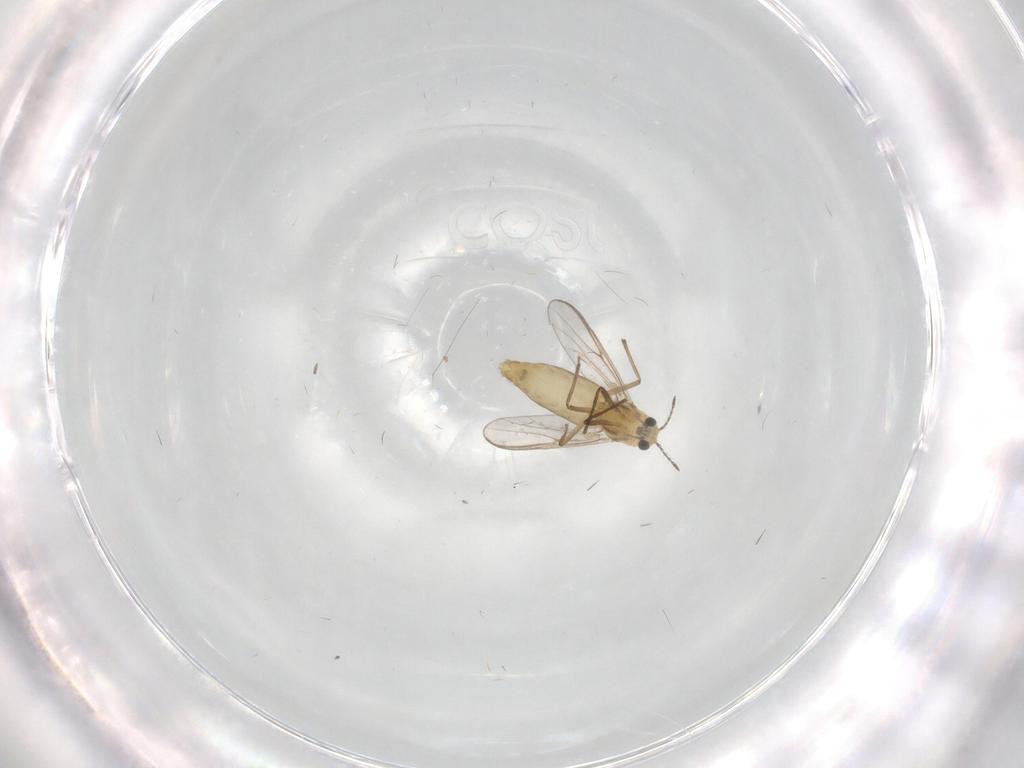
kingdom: Animalia
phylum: Arthropoda
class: Insecta
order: Diptera
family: Chironomidae
